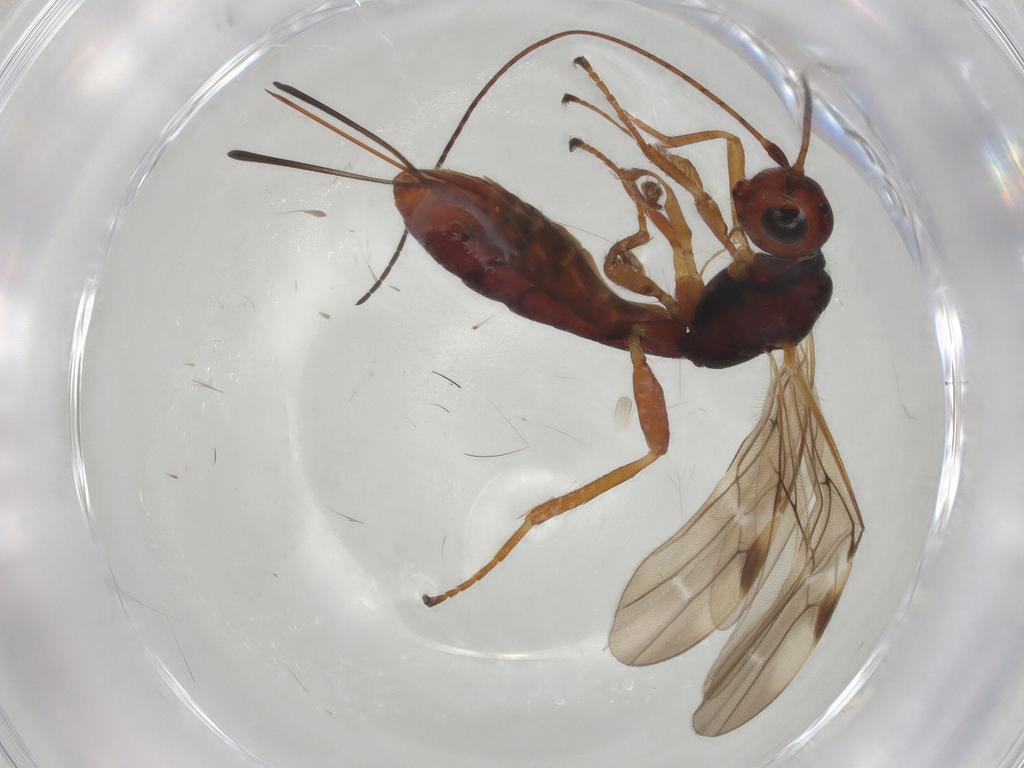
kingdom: Animalia
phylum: Arthropoda
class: Insecta
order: Hymenoptera
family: Braconidae
